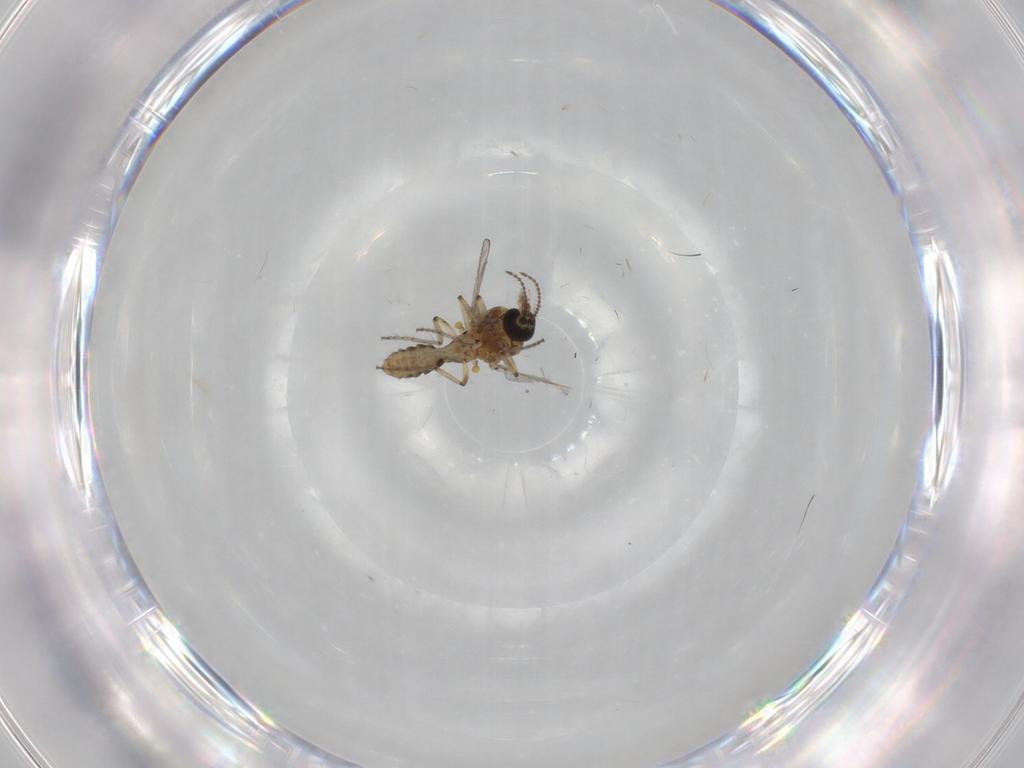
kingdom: Animalia
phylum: Arthropoda
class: Insecta
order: Diptera
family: Ceratopogonidae
